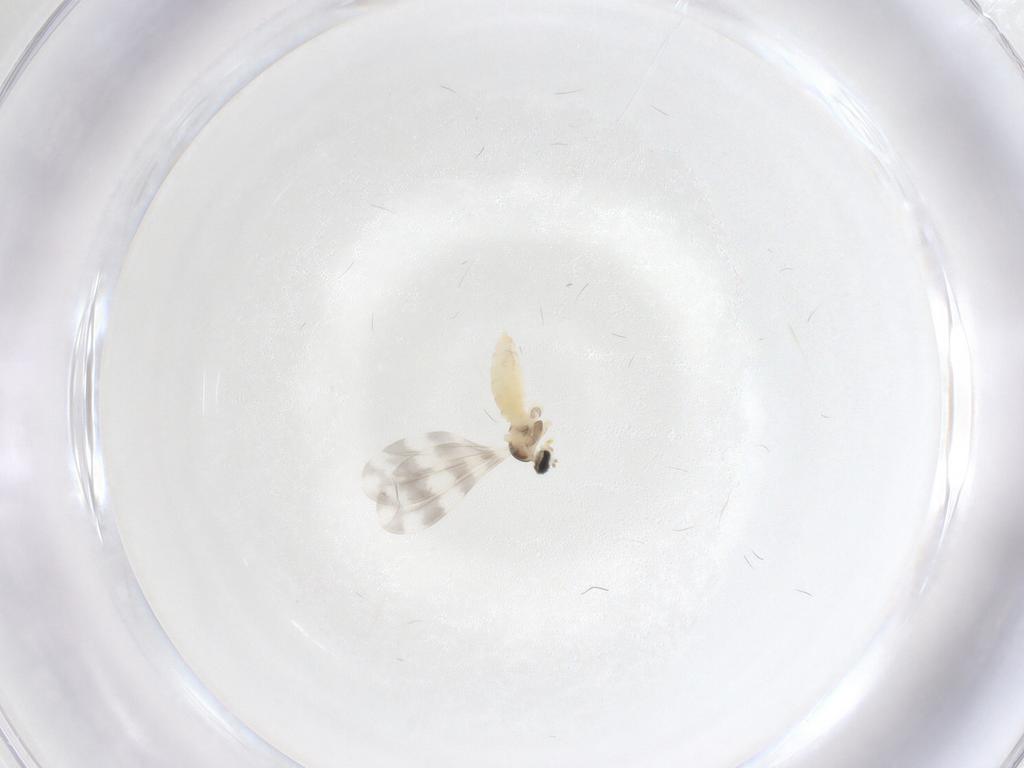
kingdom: Animalia
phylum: Arthropoda
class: Insecta
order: Diptera
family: Cecidomyiidae
